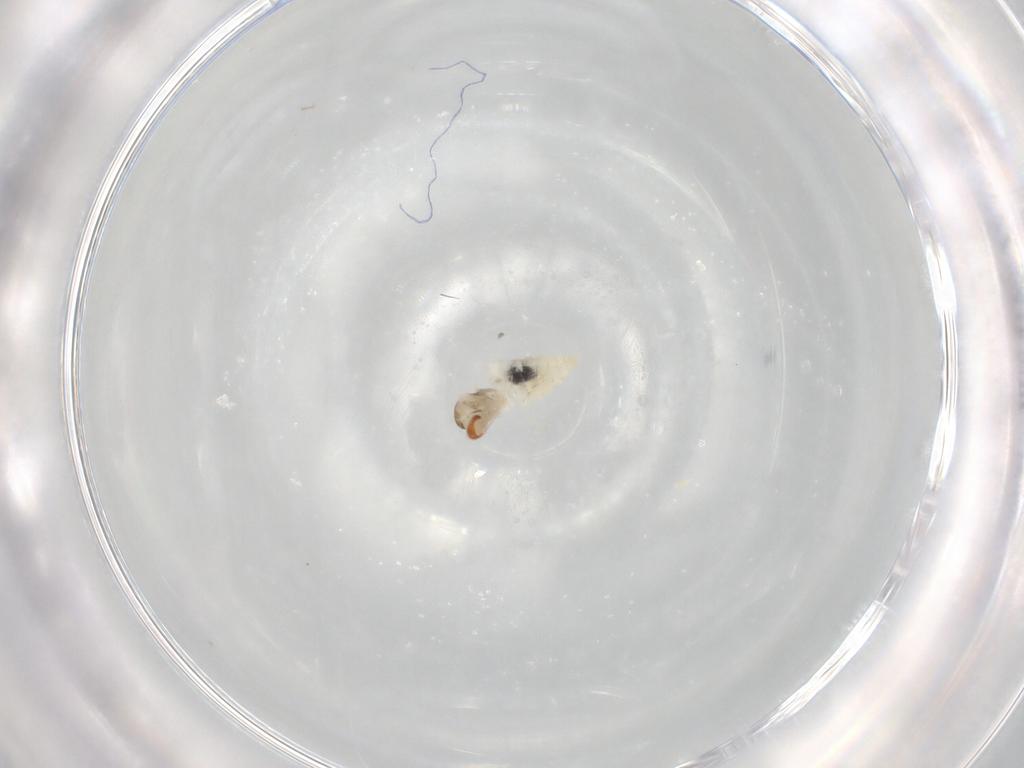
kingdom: Animalia
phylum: Arthropoda
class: Insecta
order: Diptera
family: Cecidomyiidae
